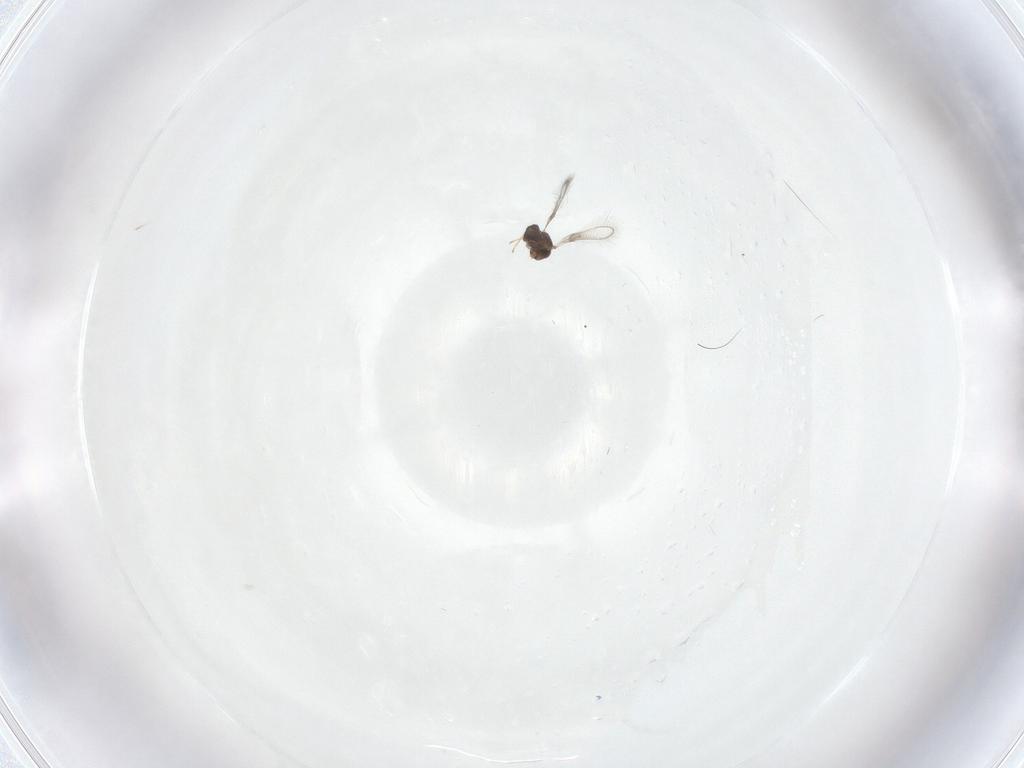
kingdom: Animalia
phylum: Arthropoda
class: Insecta
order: Hymenoptera
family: Mymaridae
